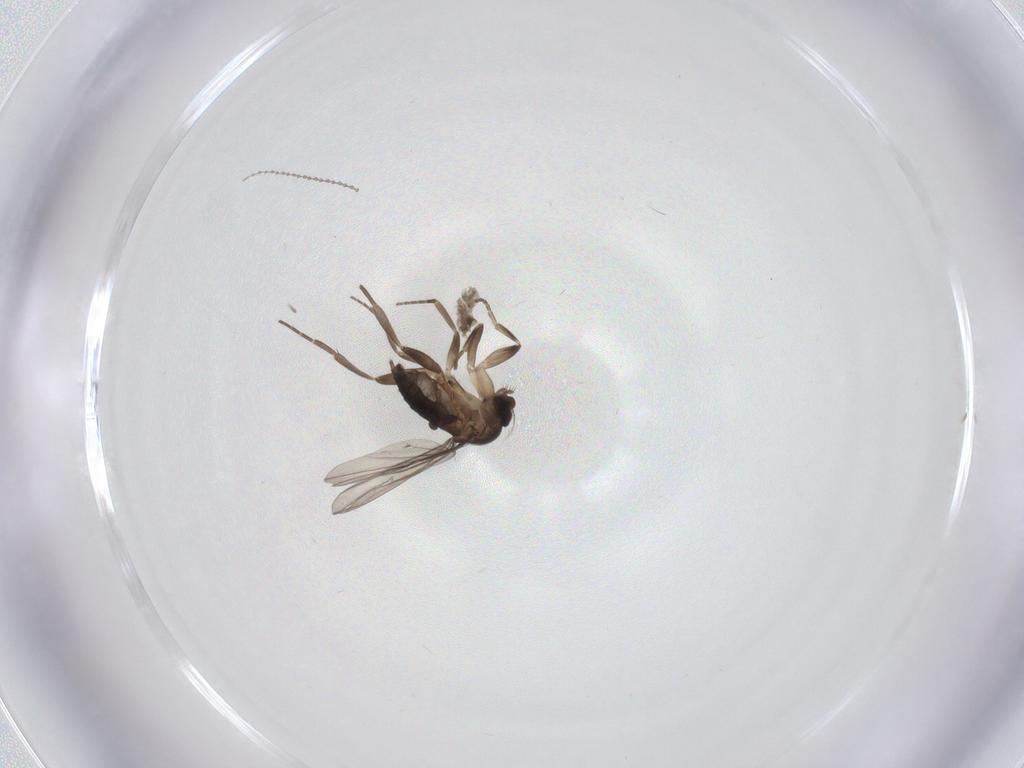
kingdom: Animalia
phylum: Arthropoda
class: Insecta
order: Diptera
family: Cecidomyiidae
